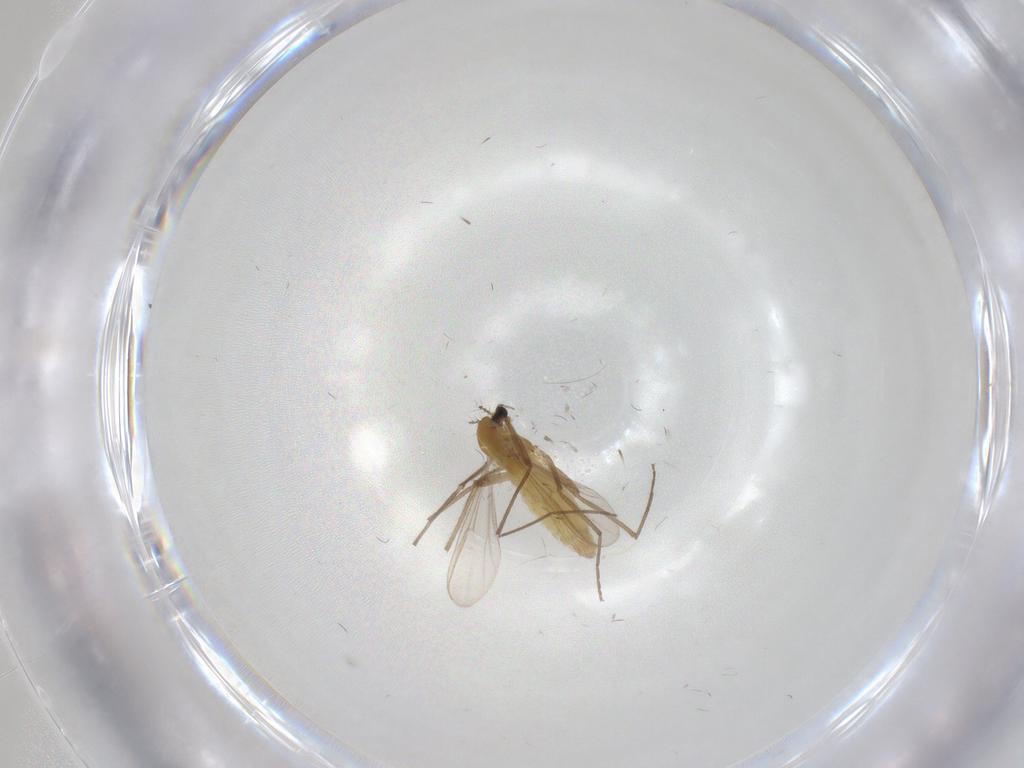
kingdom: Animalia
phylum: Arthropoda
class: Insecta
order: Diptera
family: Chironomidae
